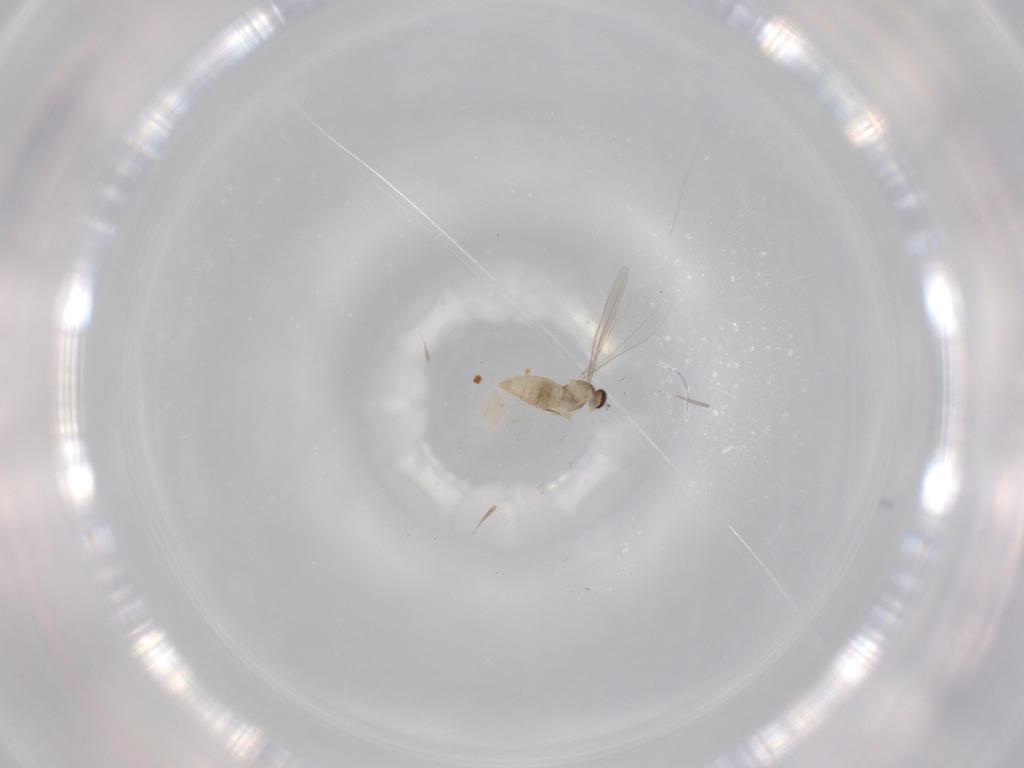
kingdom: Animalia
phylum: Arthropoda
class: Insecta
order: Diptera
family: Cecidomyiidae
